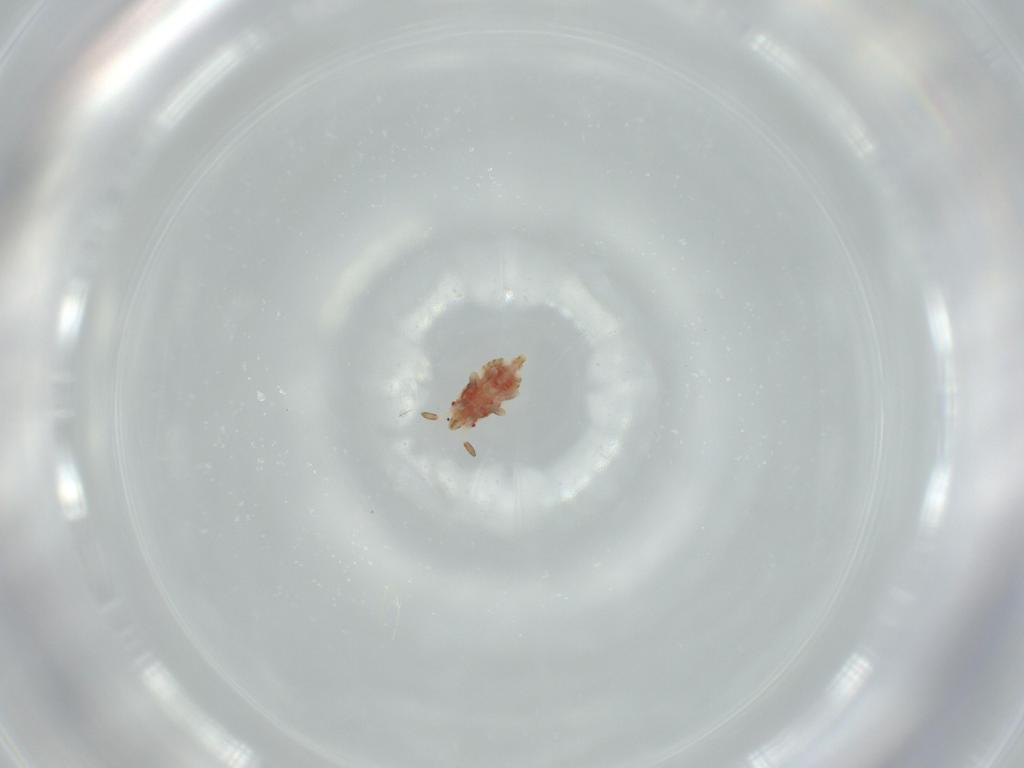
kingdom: Animalia
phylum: Arthropoda
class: Insecta
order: Hemiptera
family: Aradidae
